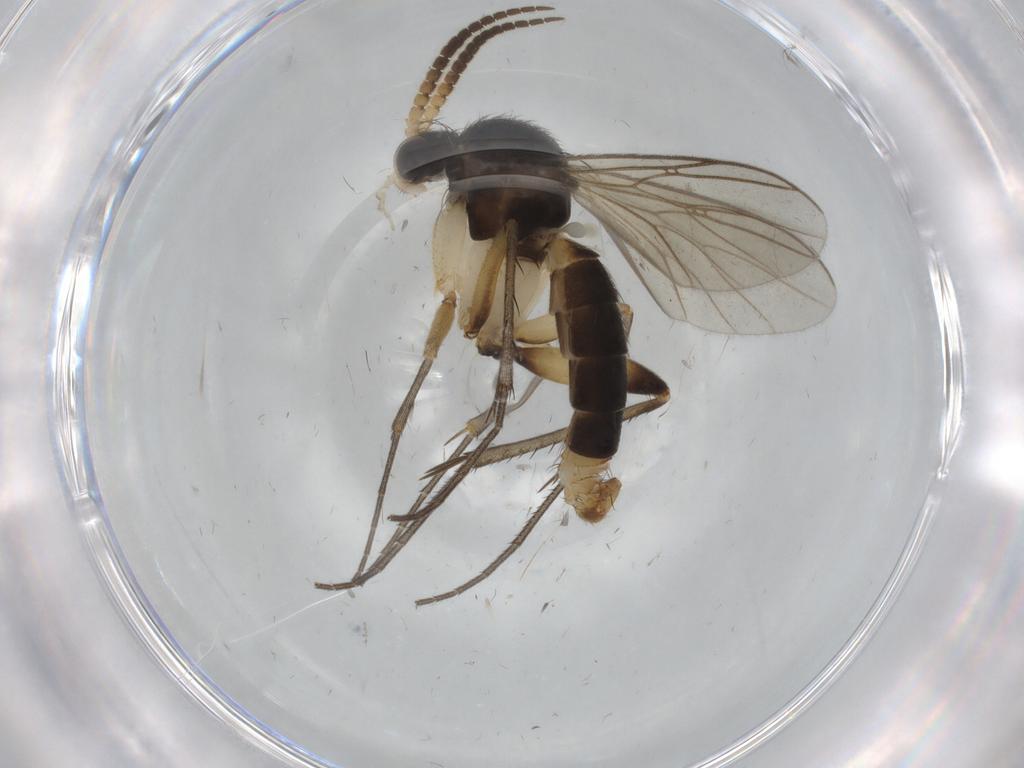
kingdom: Animalia
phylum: Arthropoda
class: Insecta
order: Diptera
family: Empididae
